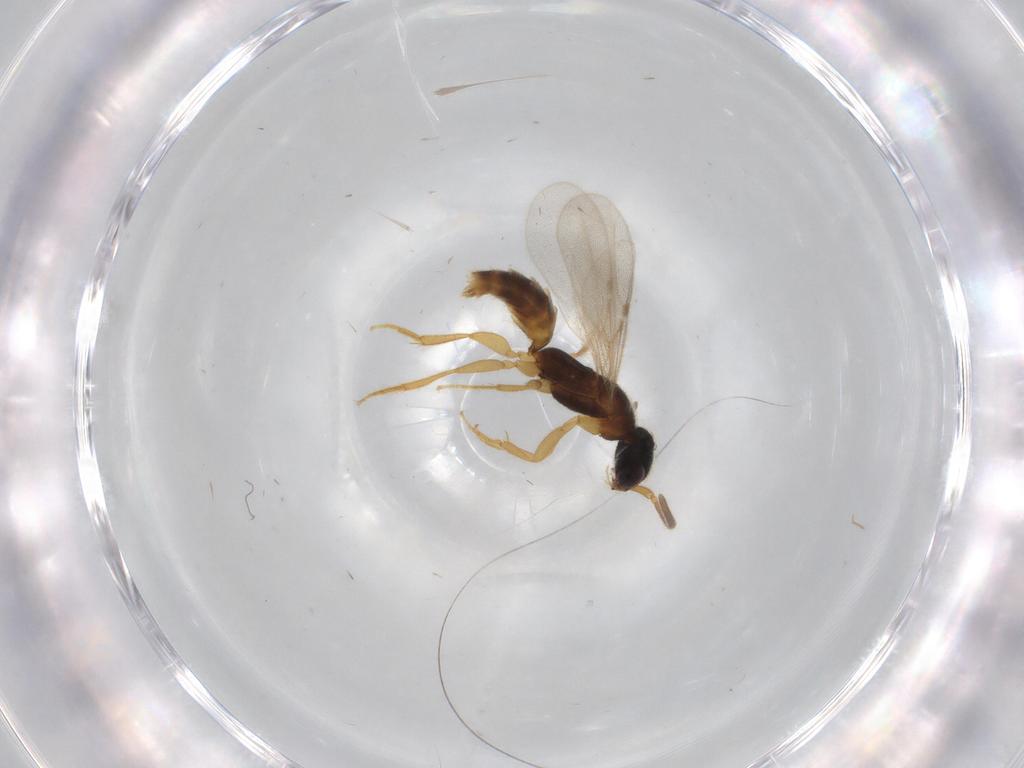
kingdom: Animalia
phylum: Arthropoda
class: Insecta
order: Hymenoptera
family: Bethylidae
